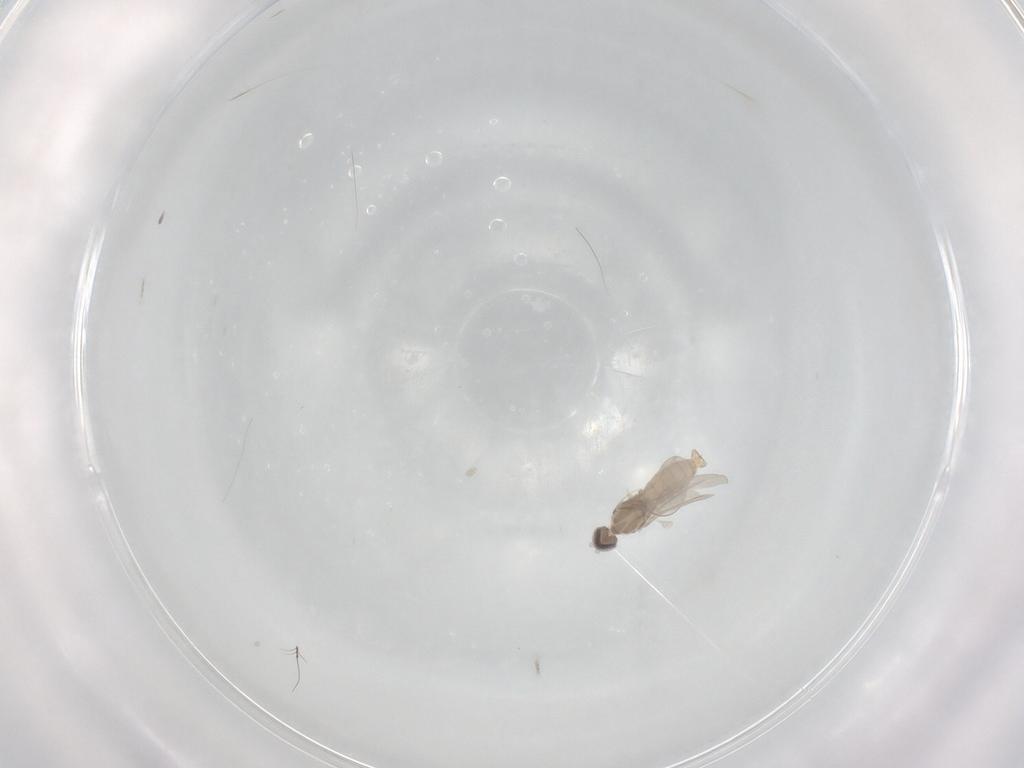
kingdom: Animalia
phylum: Arthropoda
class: Insecta
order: Diptera
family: Cecidomyiidae
